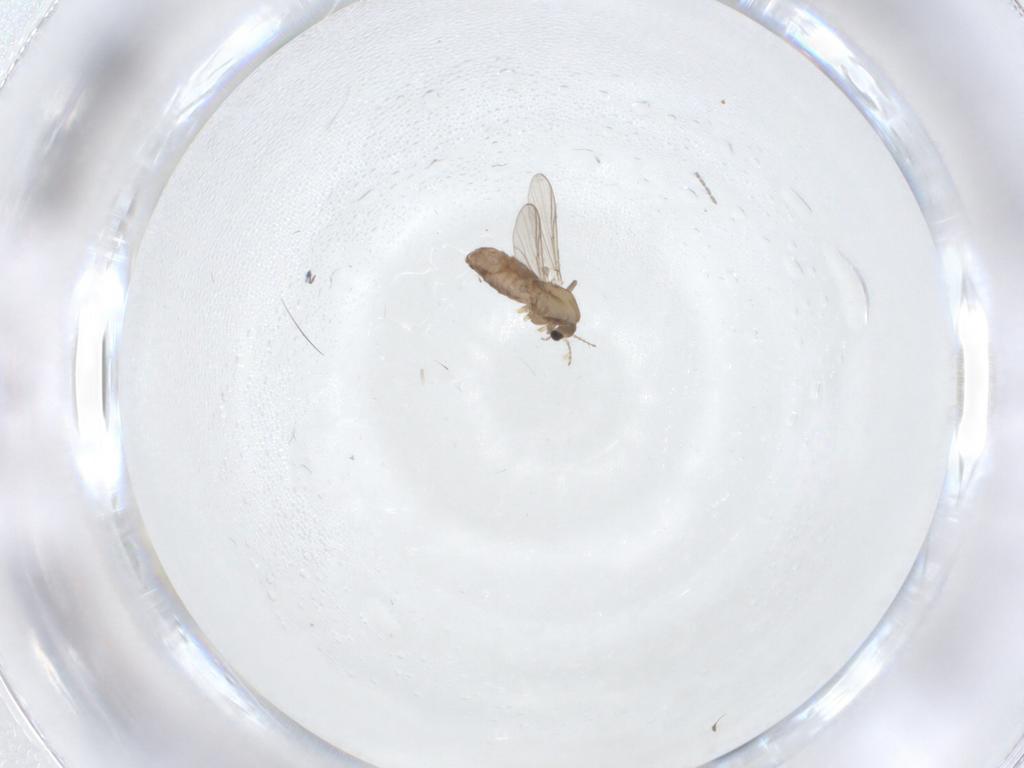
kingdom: Animalia
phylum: Arthropoda
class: Insecta
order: Diptera
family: Chironomidae
